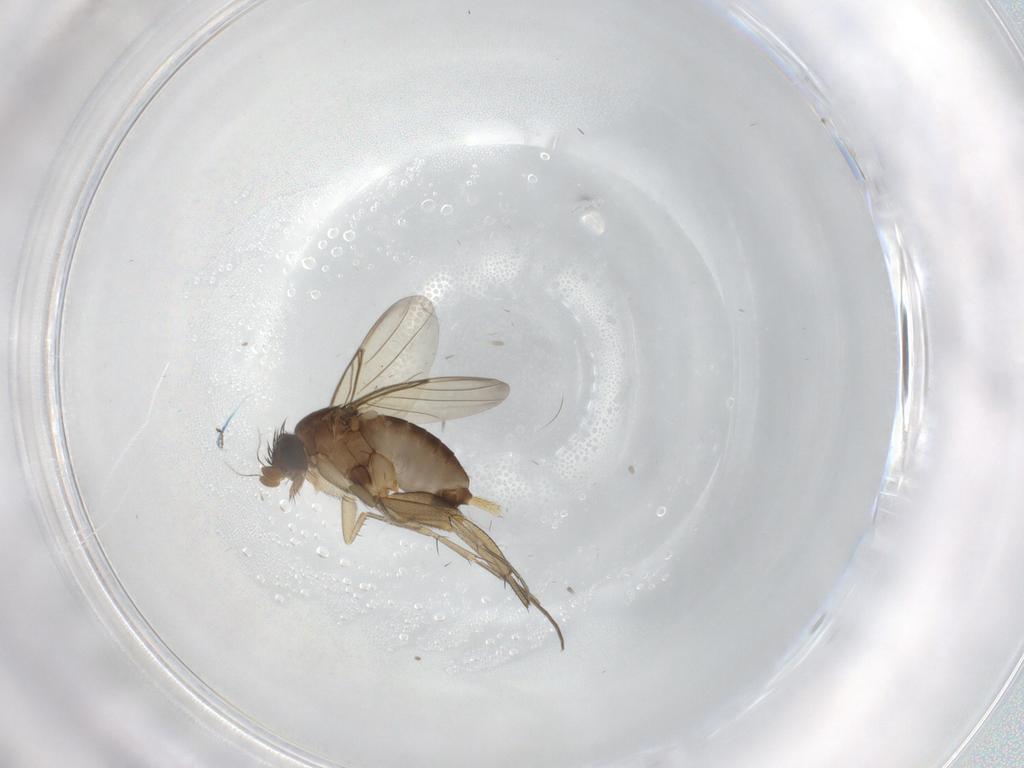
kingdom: Animalia
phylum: Arthropoda
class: Insecta
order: Diptera
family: Phoridae
